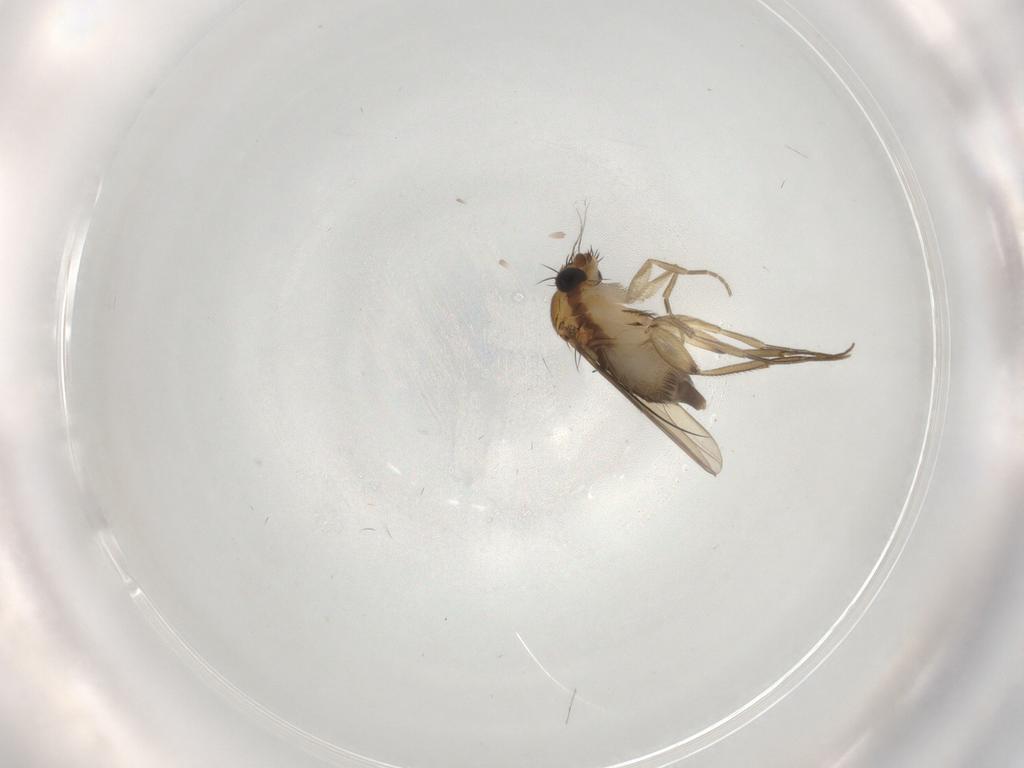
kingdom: Animalia
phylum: Arthropoda
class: Insecta
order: Diptera
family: Phoridae
